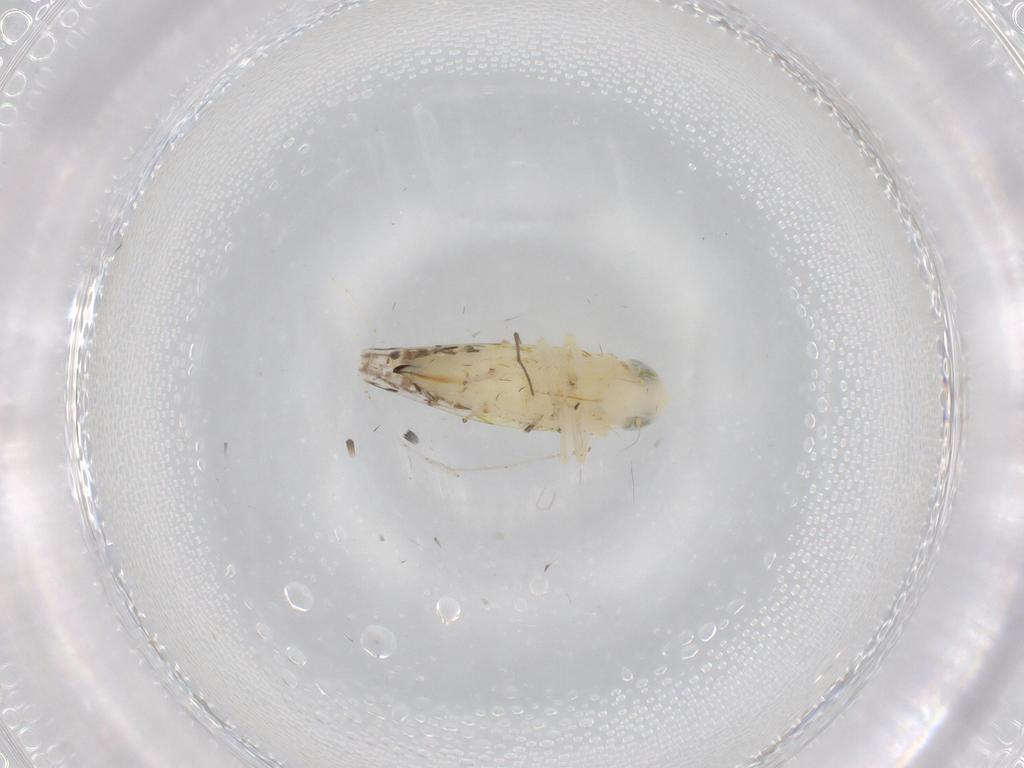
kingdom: Animalia
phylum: Arthropoda
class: Insecta
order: Hemiptera
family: Cicadellidae
